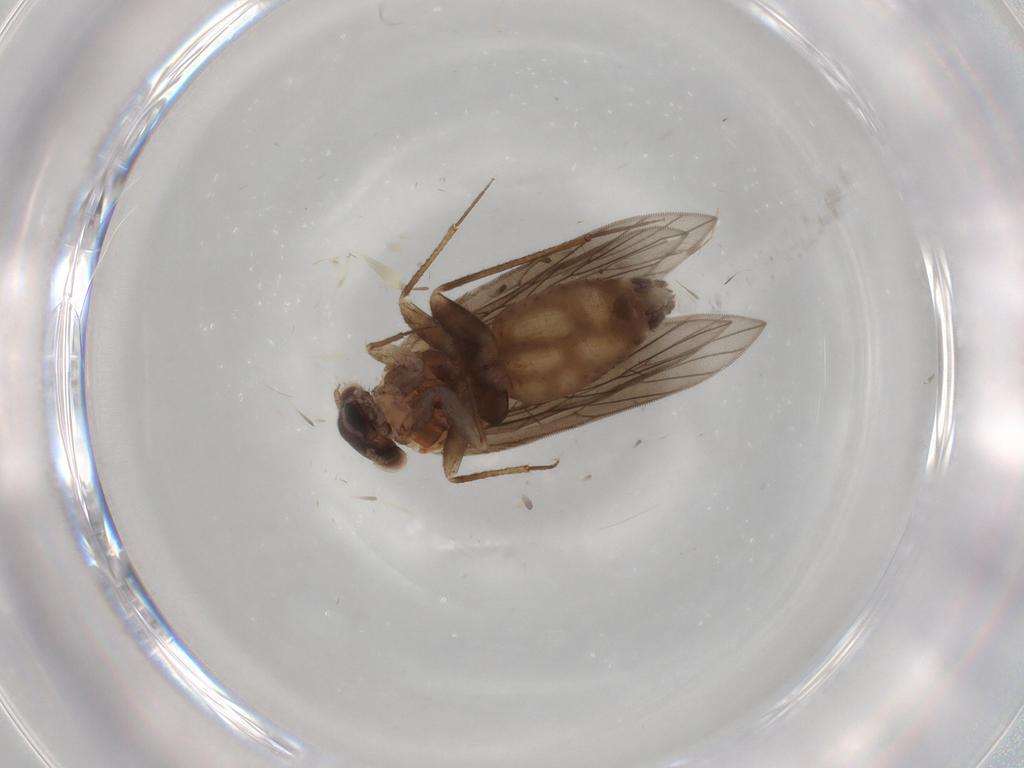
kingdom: Animalia
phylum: Arthropoda
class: Insecta
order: Psocodea
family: Lepidopsocidae
